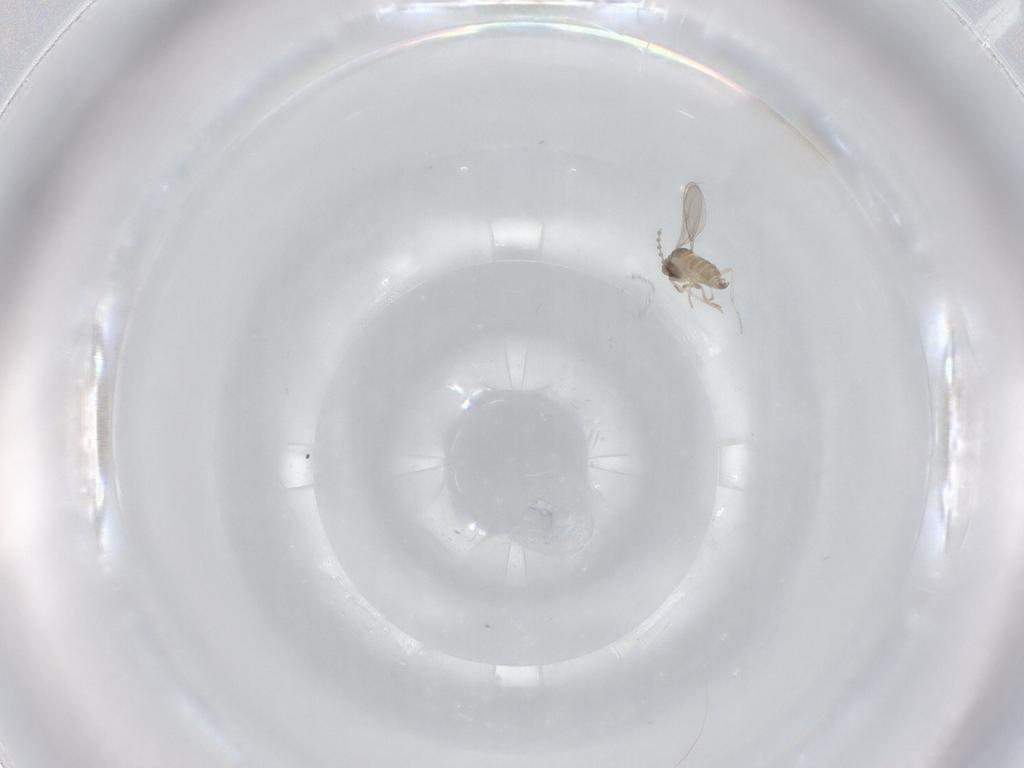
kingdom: Animalia
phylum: Arthropoda
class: Insecta
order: Diptera
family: Cecidomyiidae
